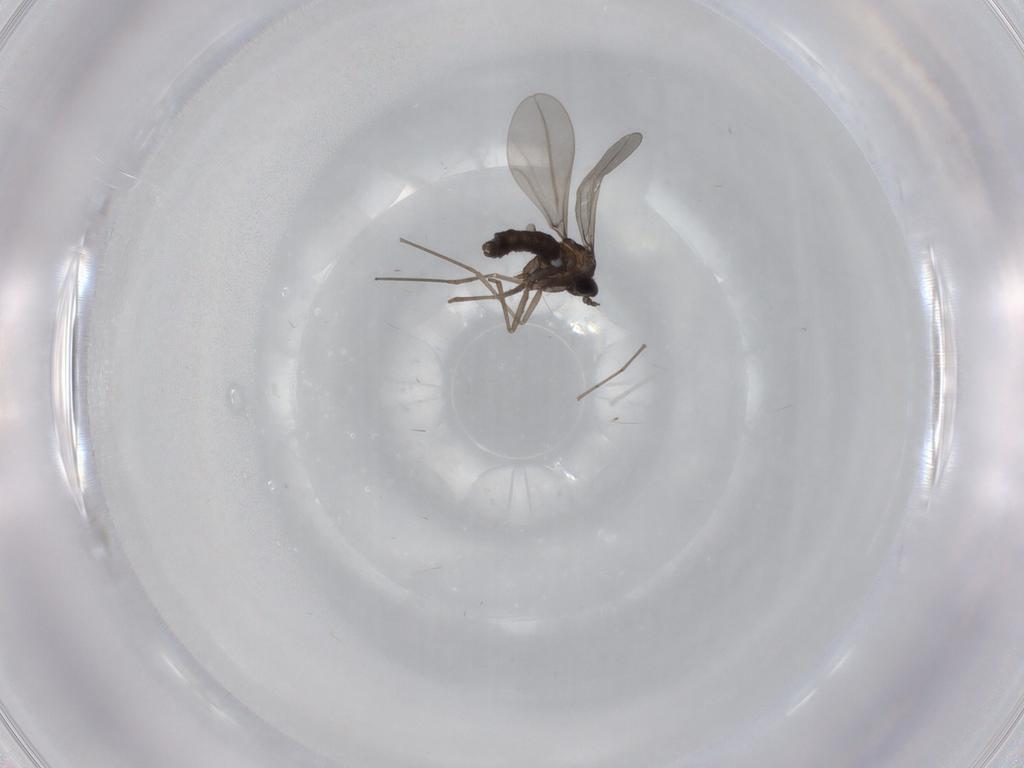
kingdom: Animalia
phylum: Arthropoda
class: Insecta
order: Diptera
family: Cecidomyiidae
